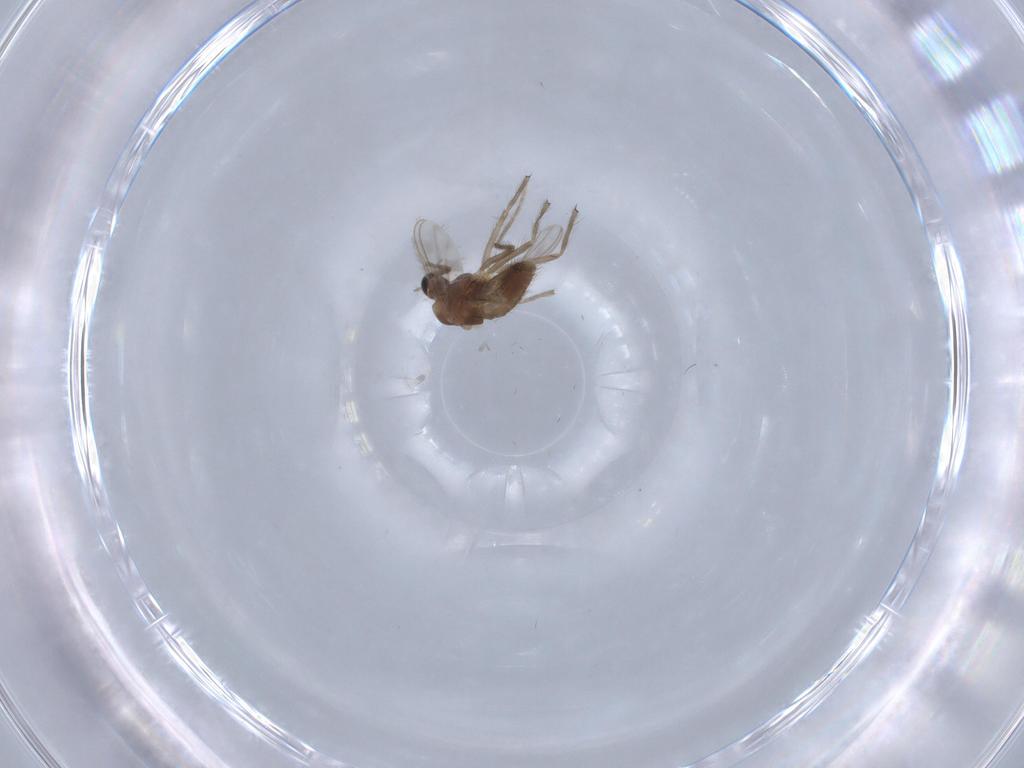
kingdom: Animalia
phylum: Arthropoda
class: Insecta
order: Diptera
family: Chironomidae
